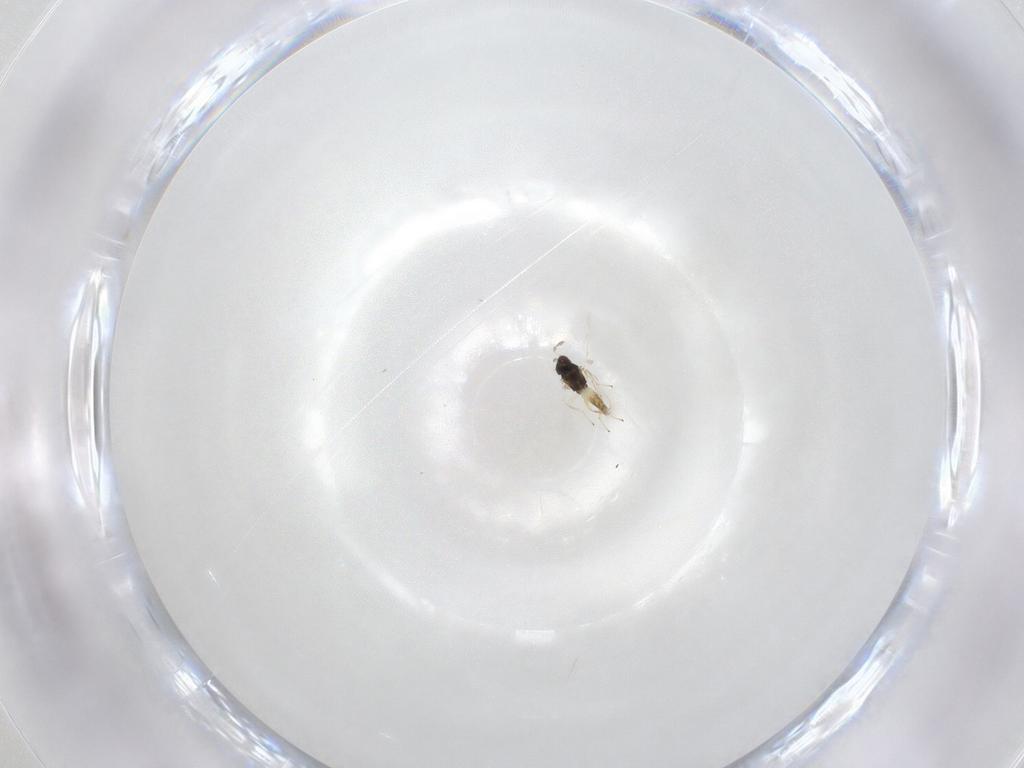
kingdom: Animalia
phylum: Arthropoda
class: Insecta
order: Hymenoptera
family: Eulophidae
